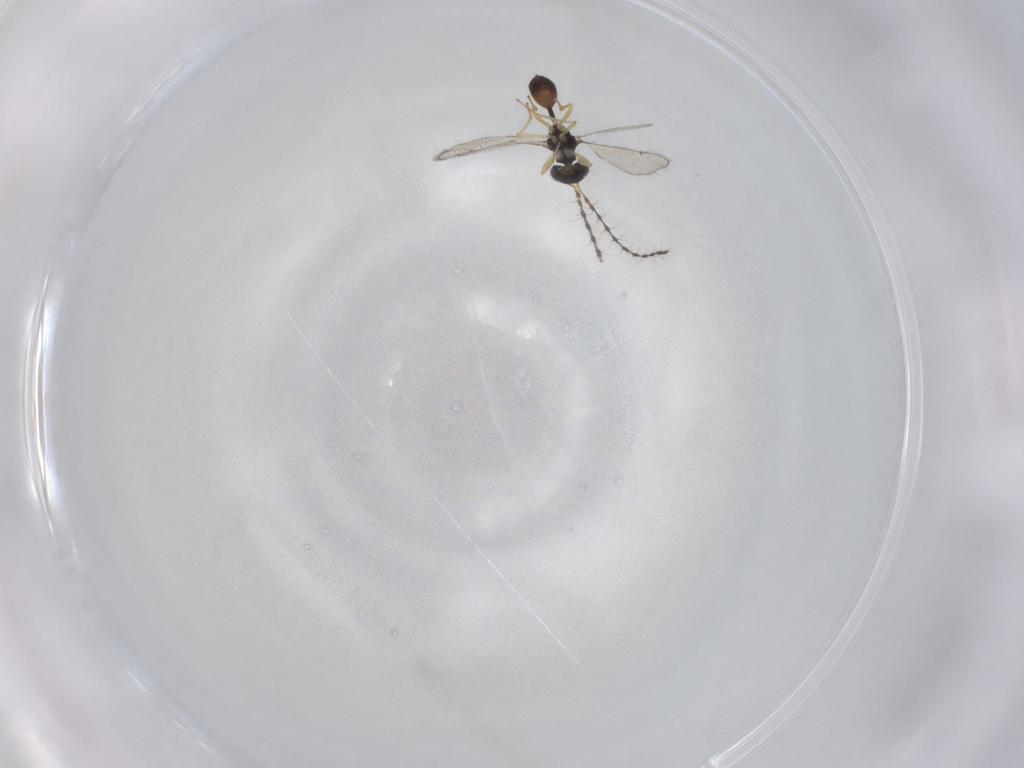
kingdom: Animalia
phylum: Arthropoda
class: Insecta
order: Hymenoptera
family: Pteromalidae
